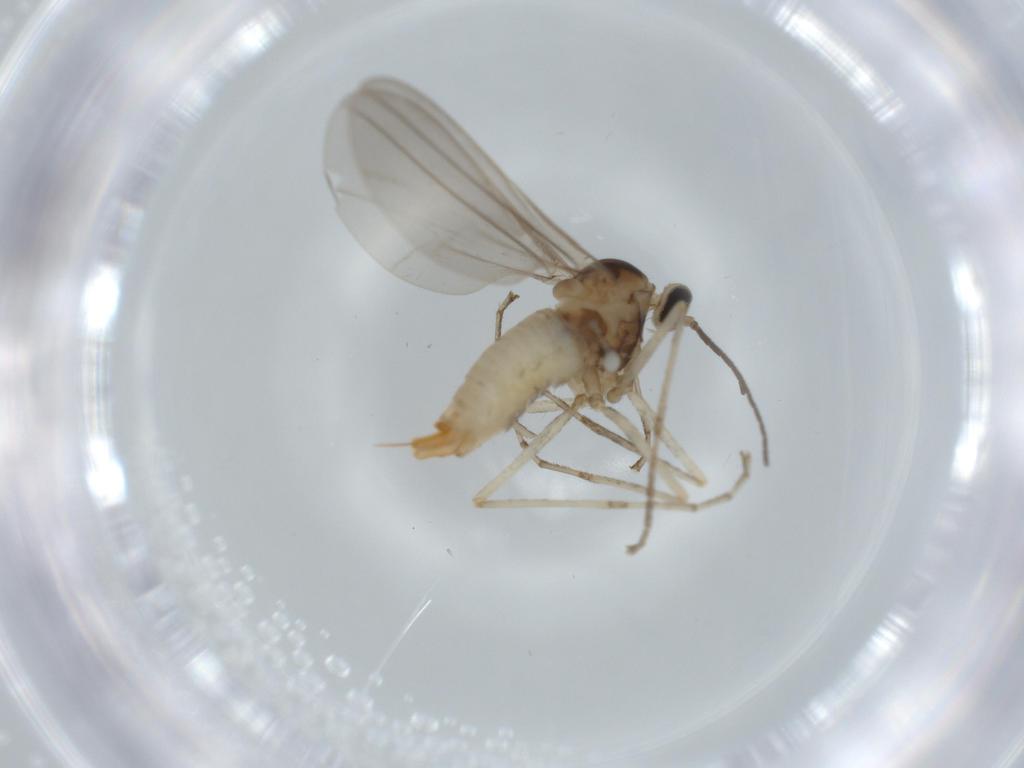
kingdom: Animalia
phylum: Arthropoda
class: Insecta
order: Diptera
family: Cecidomyiidae
